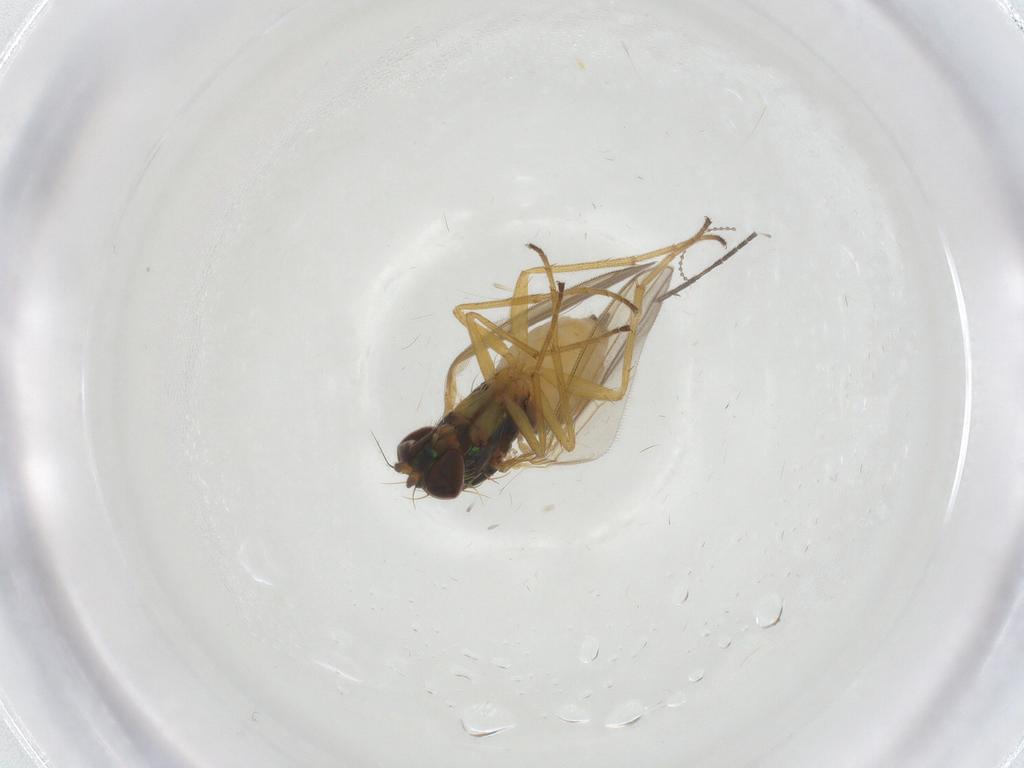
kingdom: Animalia
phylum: Arthropoda
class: Insecta
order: Diptera
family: Dolichopodidae
